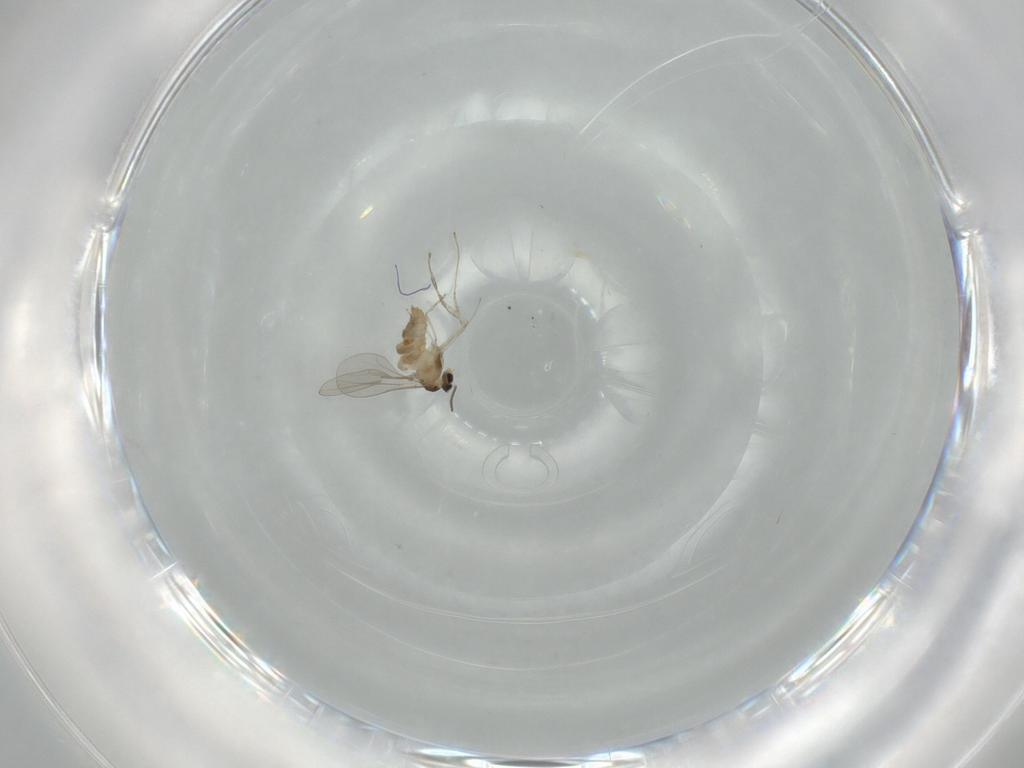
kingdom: Animalia
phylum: Arthropoda
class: Insecta
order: Diptera
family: Cecidomyiidae
